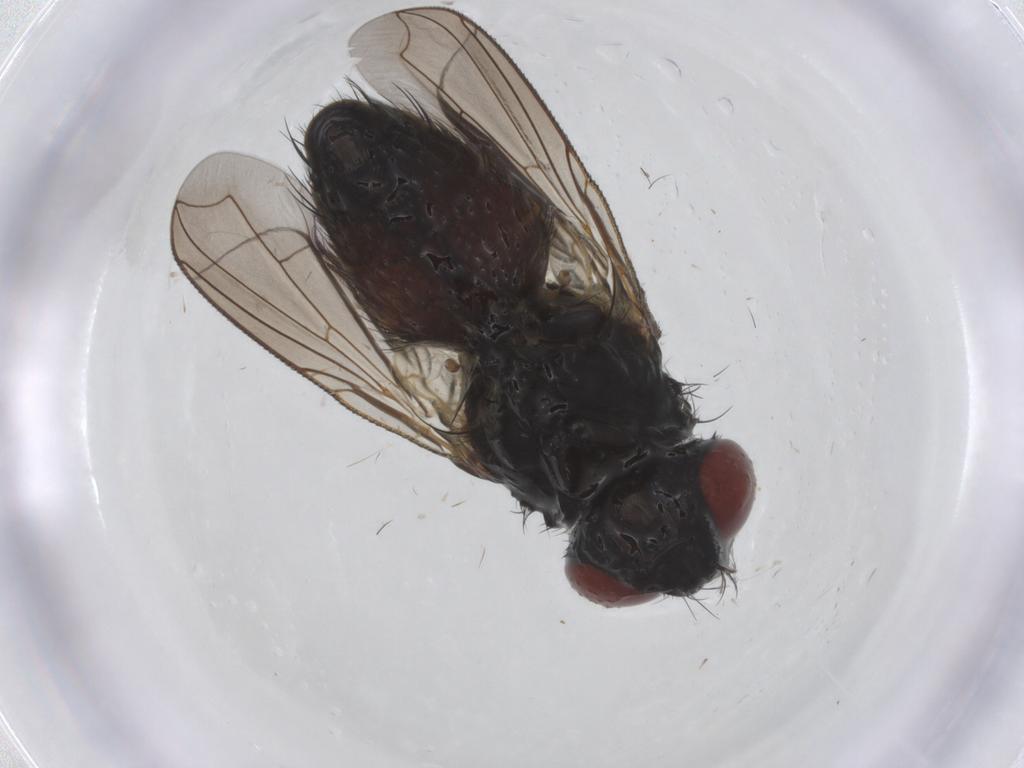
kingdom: Animalia
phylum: Arthropoda
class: Insecta
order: Diptera
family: Sarcophagidae
